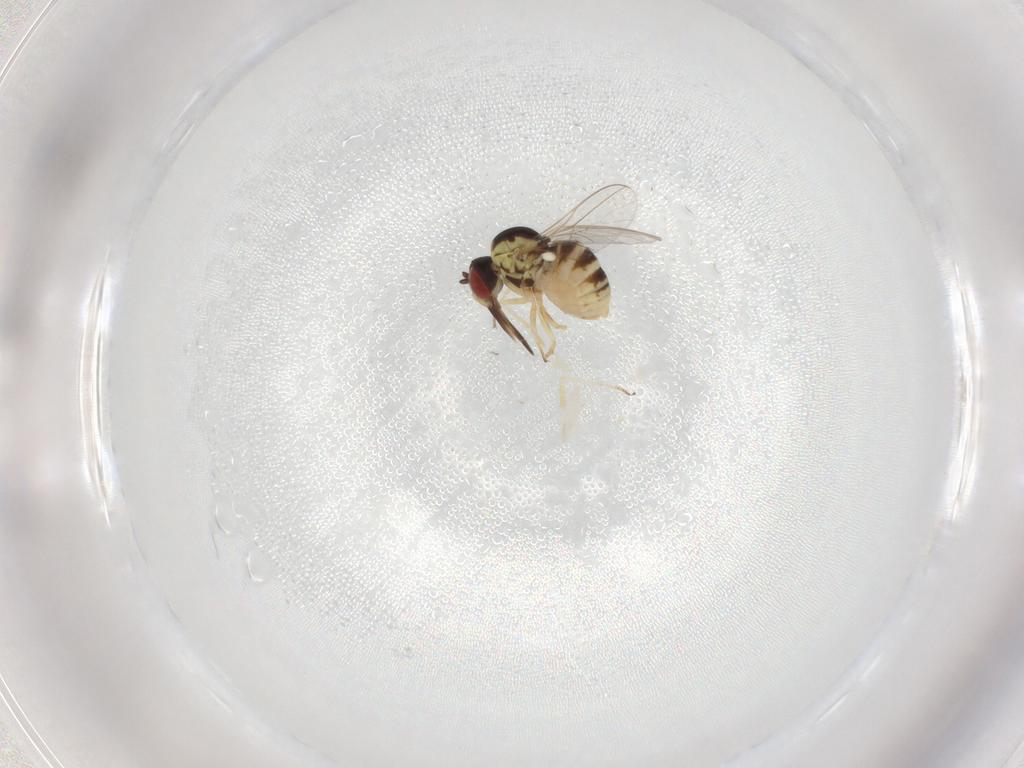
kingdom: Animalia
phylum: Arthropoda
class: Insecta
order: Diptera
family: Bombyliidae
